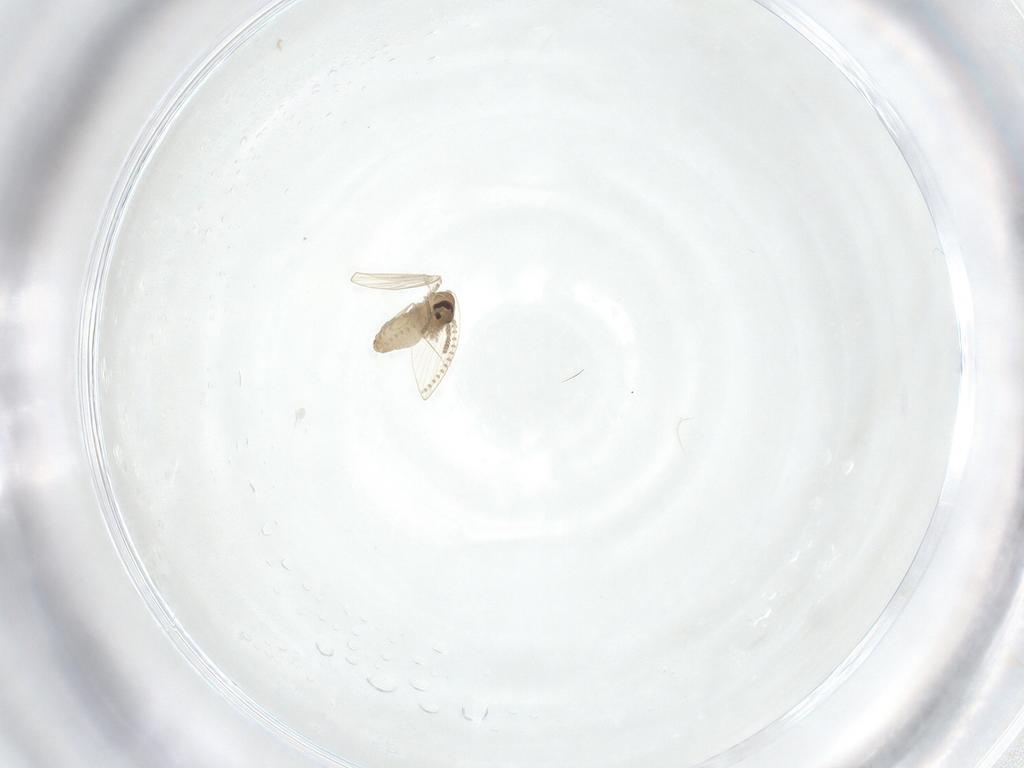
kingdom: Animalia
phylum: Arthropoda
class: Insecta
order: Diptera
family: Psychodidae
